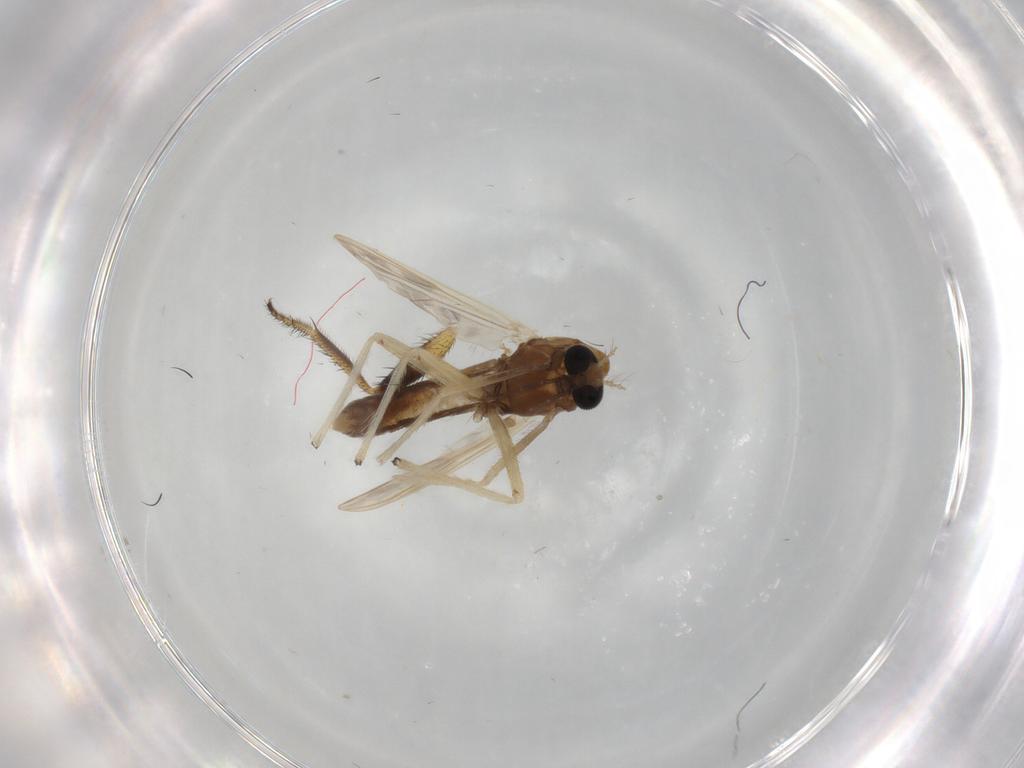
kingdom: Animalia
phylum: Arthropoda
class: Insecta
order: Diptera
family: Chironomidae
